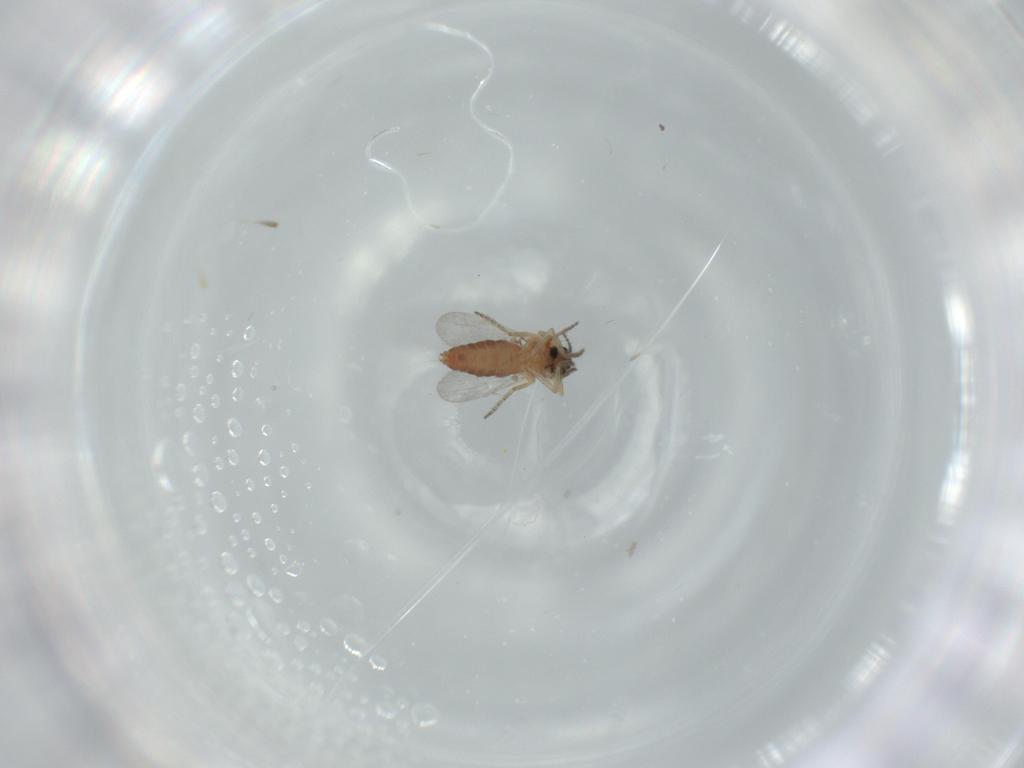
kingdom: Animalia
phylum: Arthropoda
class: Insecta
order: Diptera
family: Ceratopogonidae
